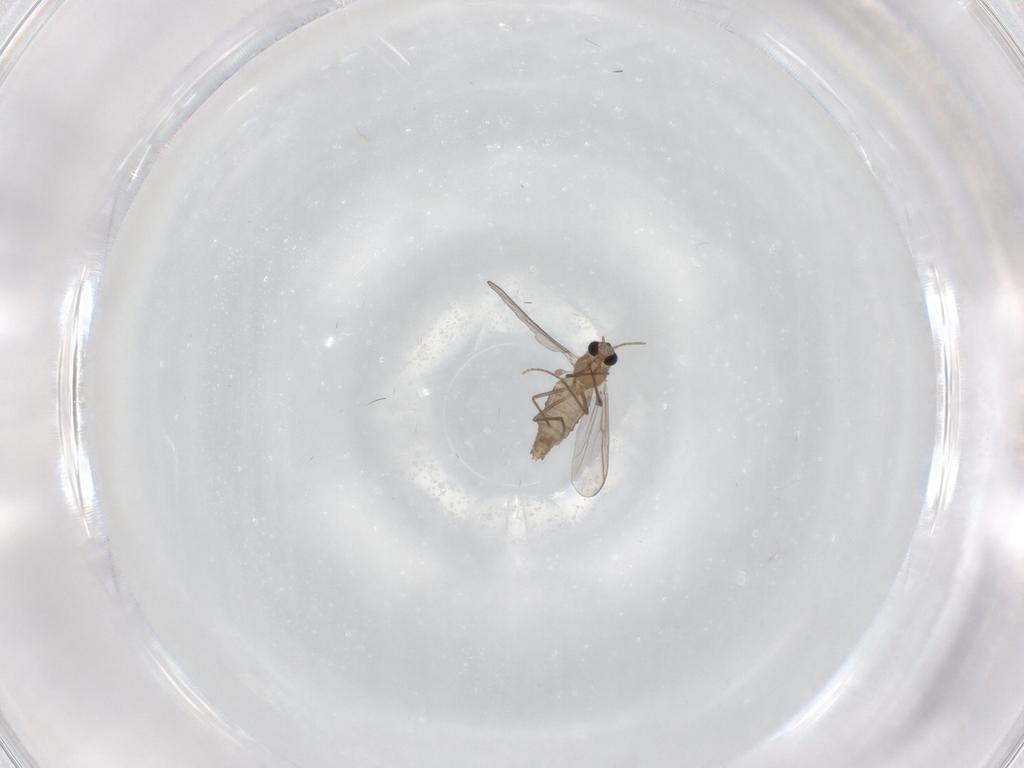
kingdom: Animalia
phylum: Arthropoda
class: Insecta
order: Diptera
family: Limoniidae
